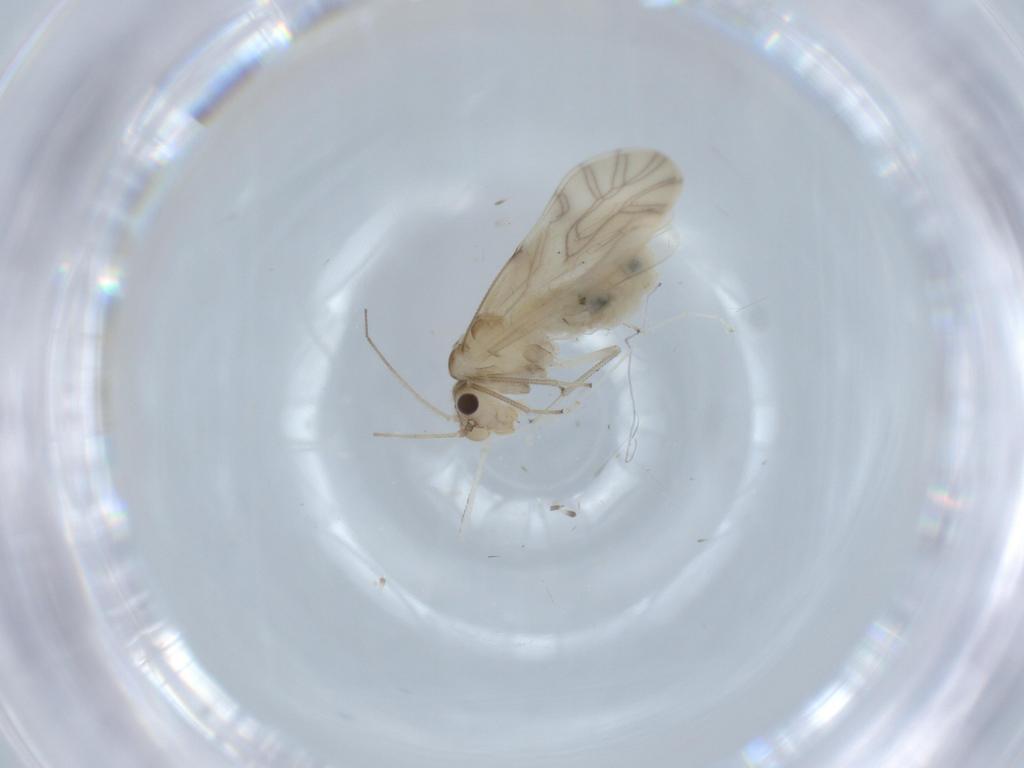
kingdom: Animalia
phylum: Arthropoda
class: Insecta
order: Psocodea
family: Caeciliusidae
